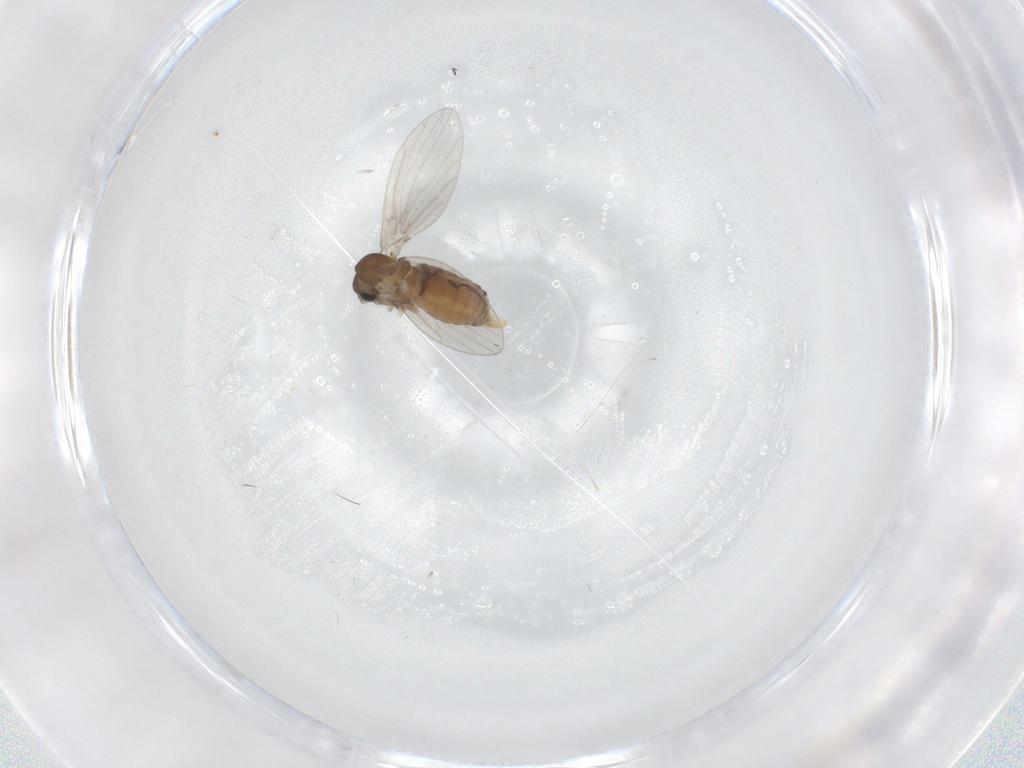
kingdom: Animalia
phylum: Arthropoda
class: Insecta
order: Diptera
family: Cecidomyiidae
